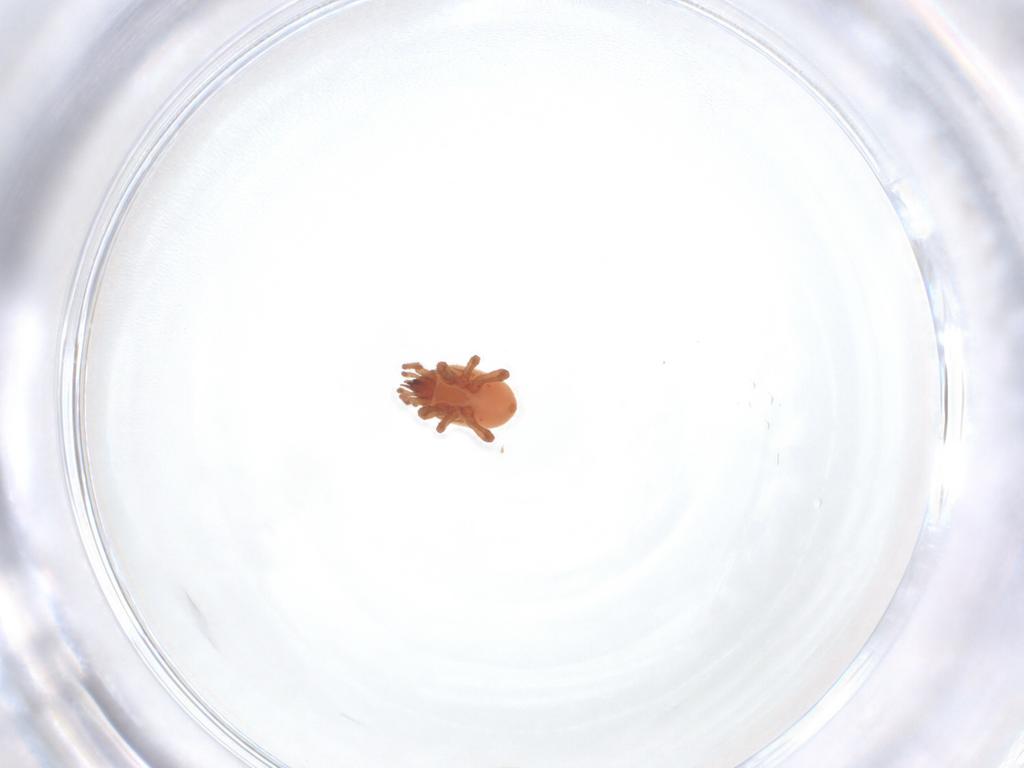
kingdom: Animalia
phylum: Arthropoda
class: Arachnida
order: Mesostigmata
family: Veigaiidae
